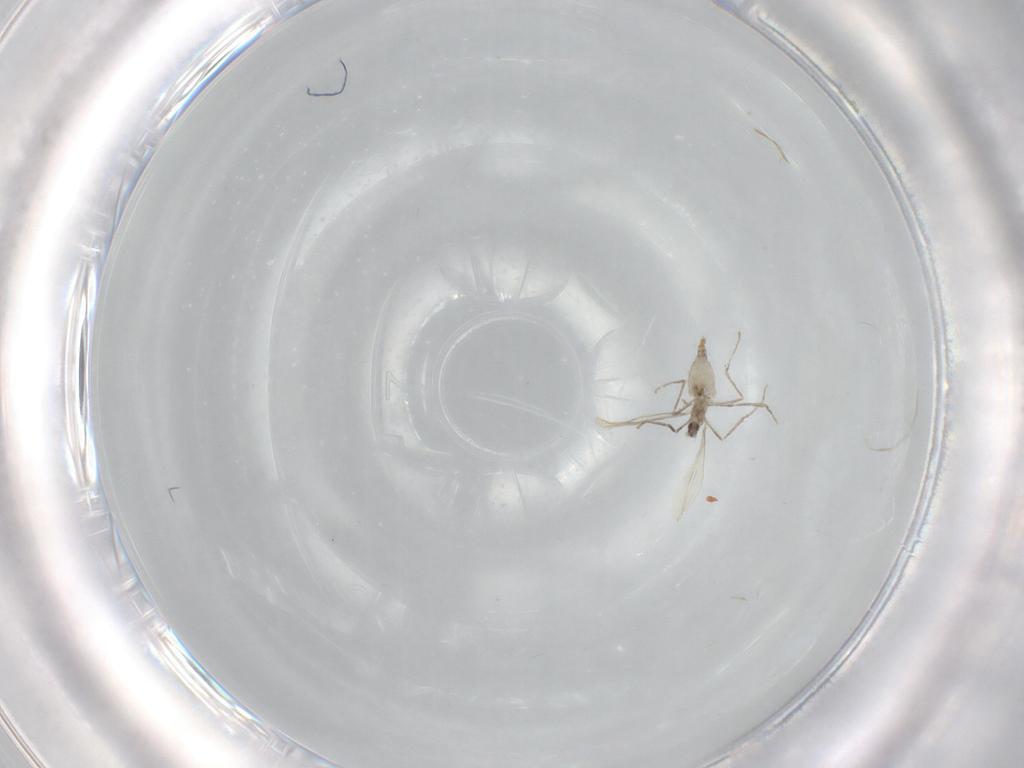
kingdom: Animalia
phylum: Arthropoda
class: Insecta
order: Diptera
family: Cecidomyiidae
